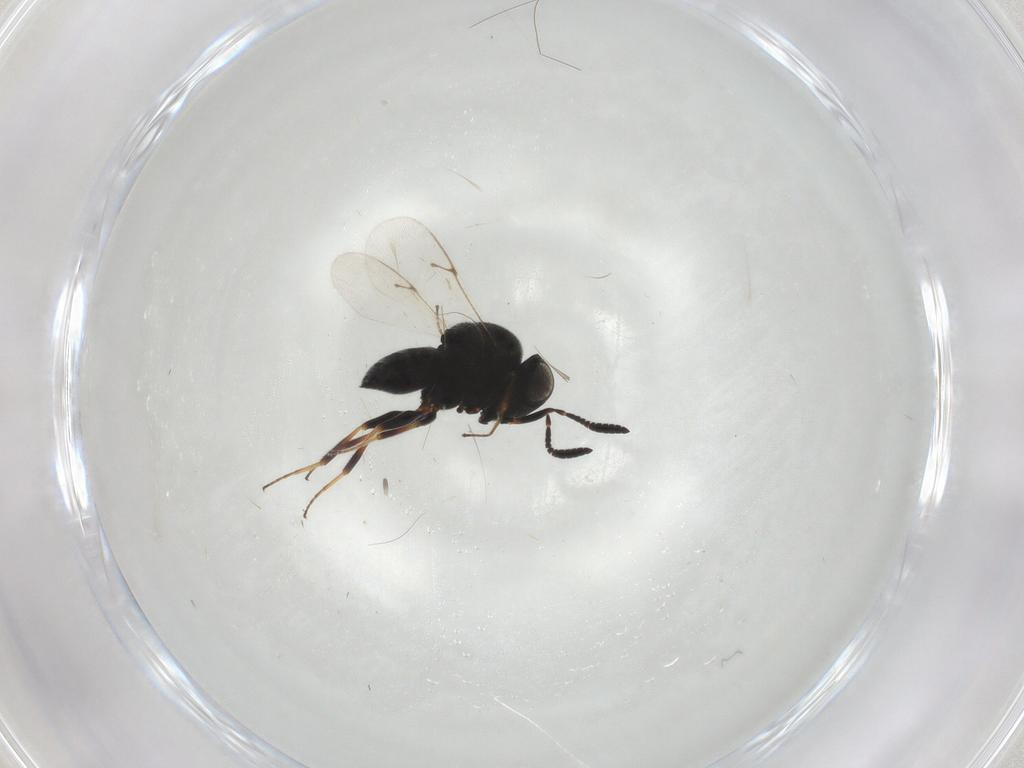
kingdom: Animalia
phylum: Arthropoda
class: Insecta
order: Hymenoptera
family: Scelionidae
